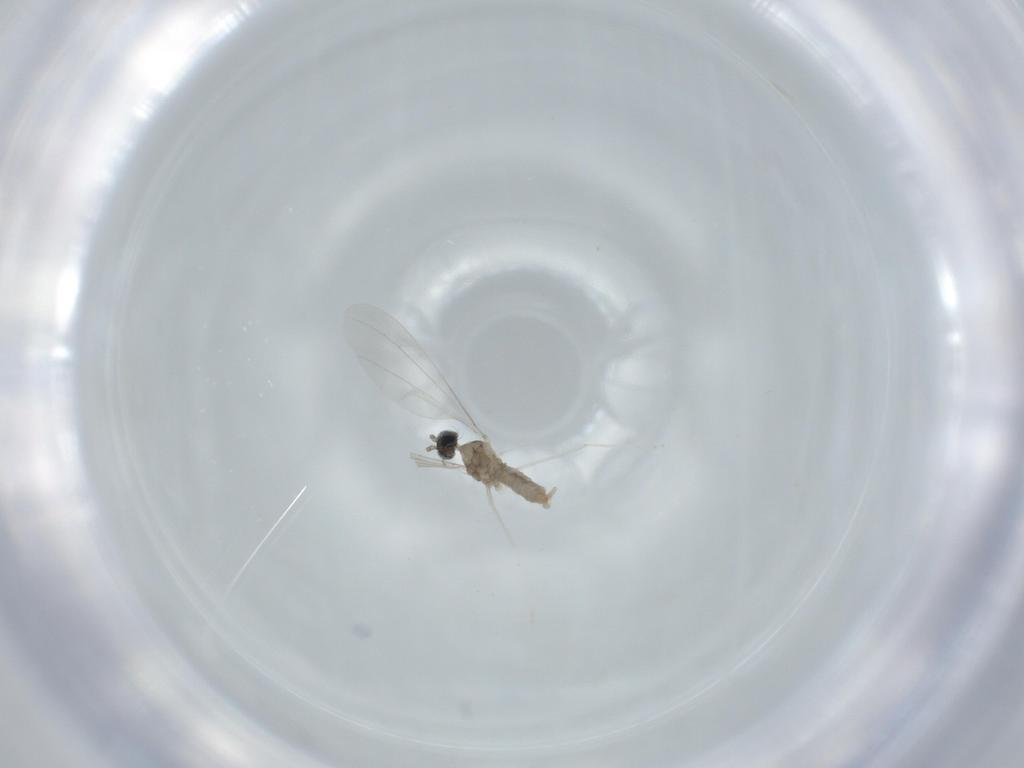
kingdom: Animalia
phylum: Arthropoda
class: Insecta
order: Diptera
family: Cecidomyiidae
